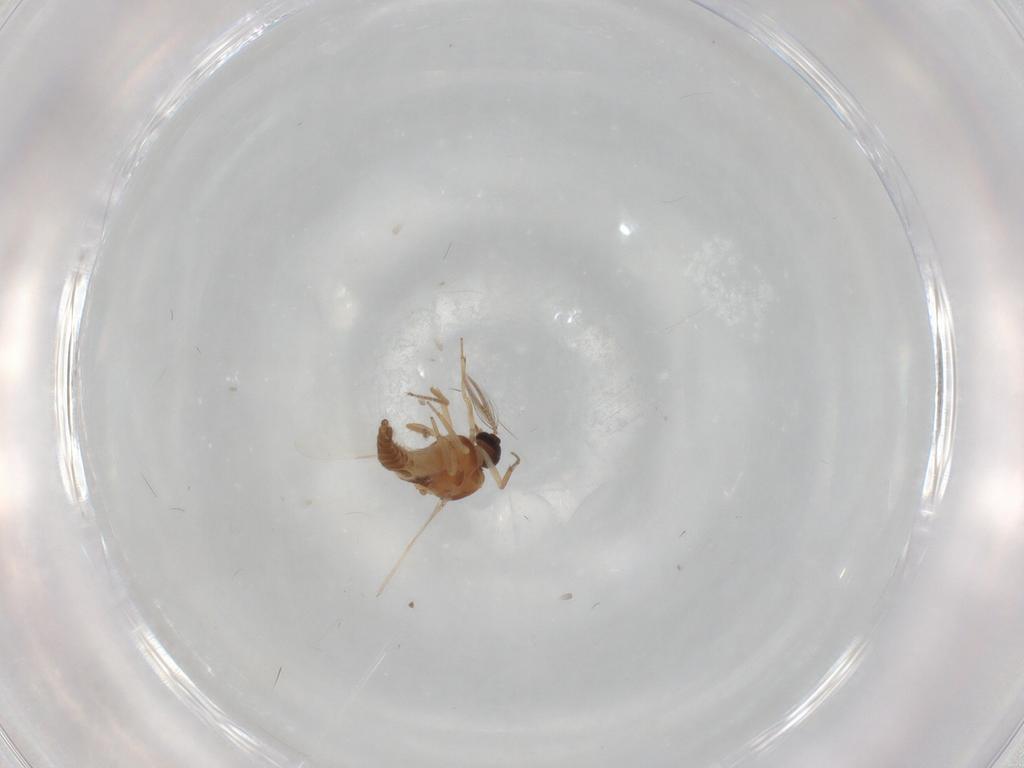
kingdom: Animalia
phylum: Arthropoda
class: Insecta
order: Diptera
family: Ceratopogonidae
